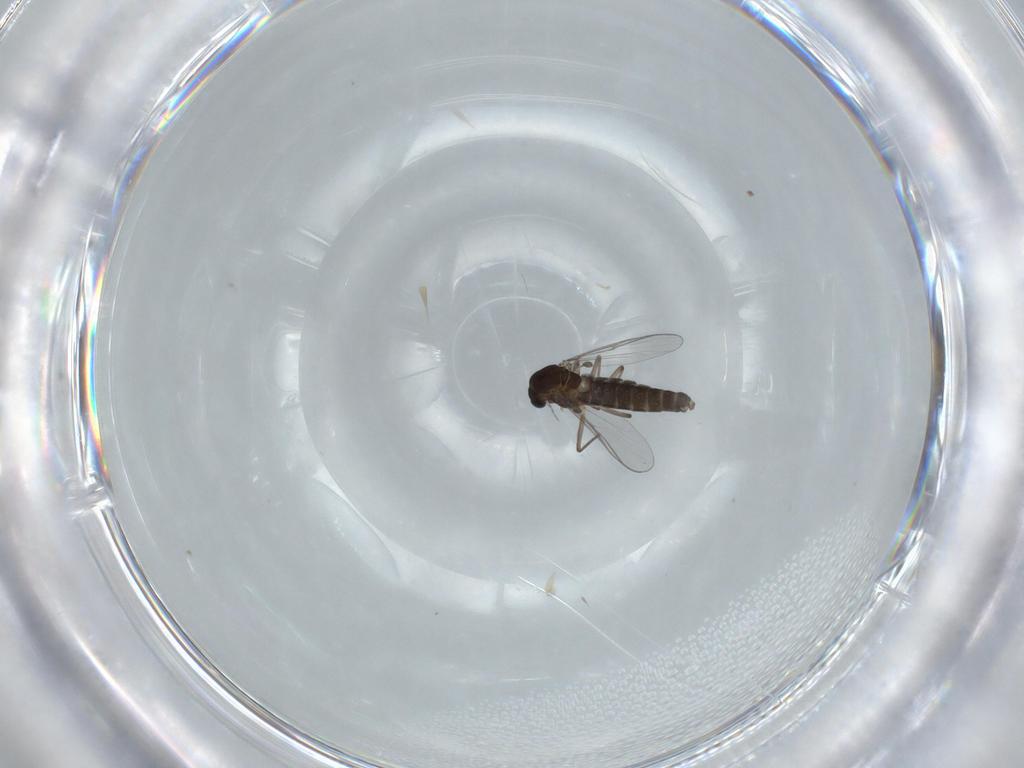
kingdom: Animalia
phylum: Arthropoda
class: Insecta
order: Diptera
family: Chironomidae
